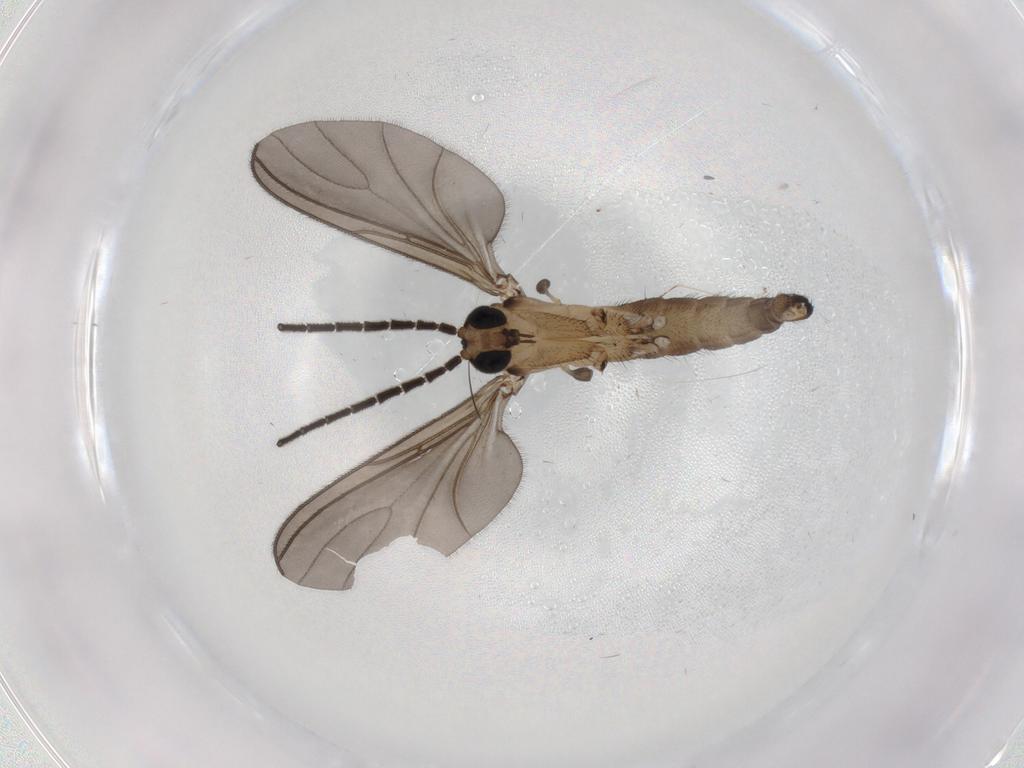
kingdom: Animalia
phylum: Arthropoda
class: Insecta
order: Diptera
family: Cecidomyiidae
